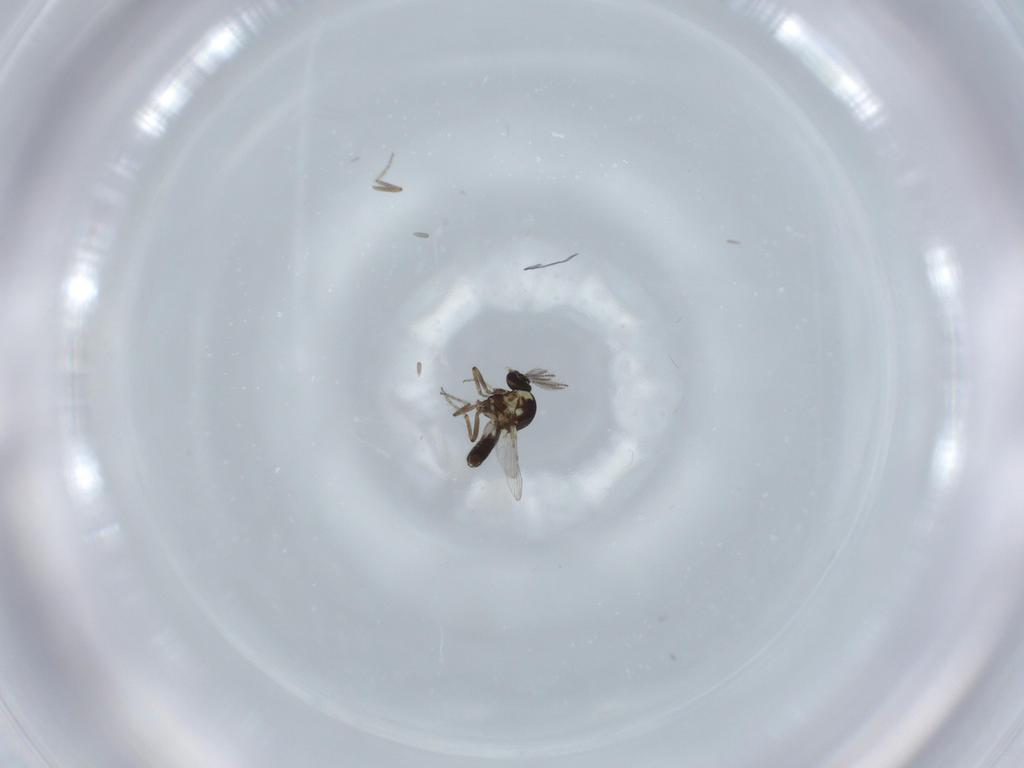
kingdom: Animalia
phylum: Arthropoda
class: Insecta
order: Diptera
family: Ceratopogonidae
